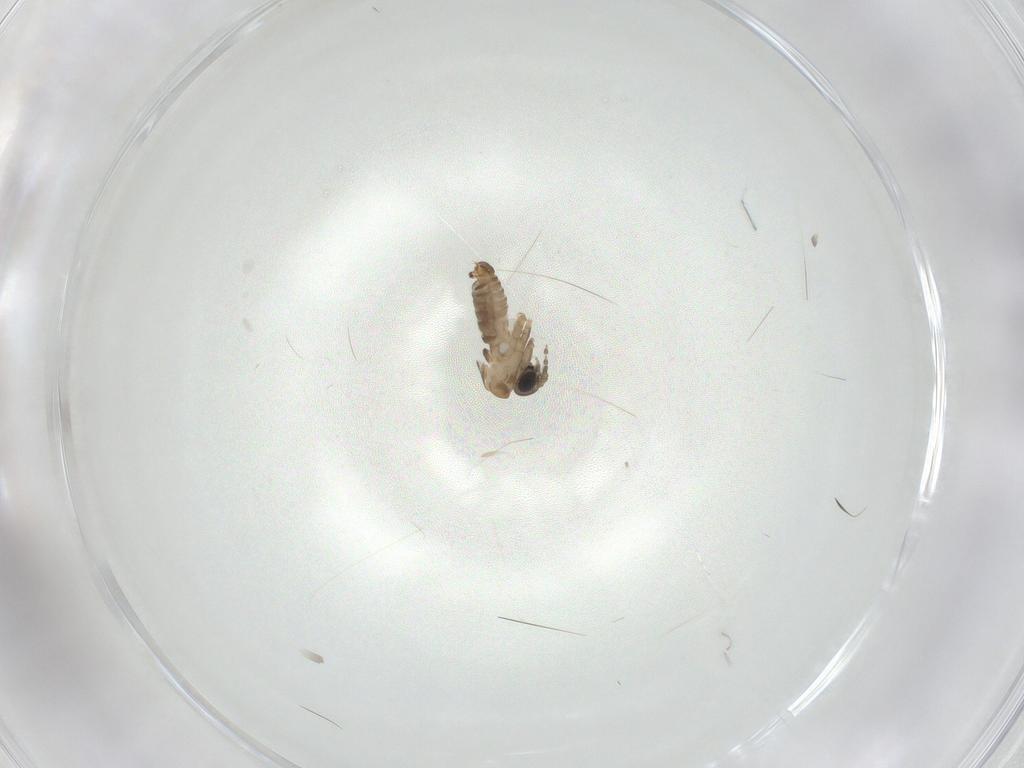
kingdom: Animalia
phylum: Arthropoda
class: Insecta
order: Diptera
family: Psychodidae
